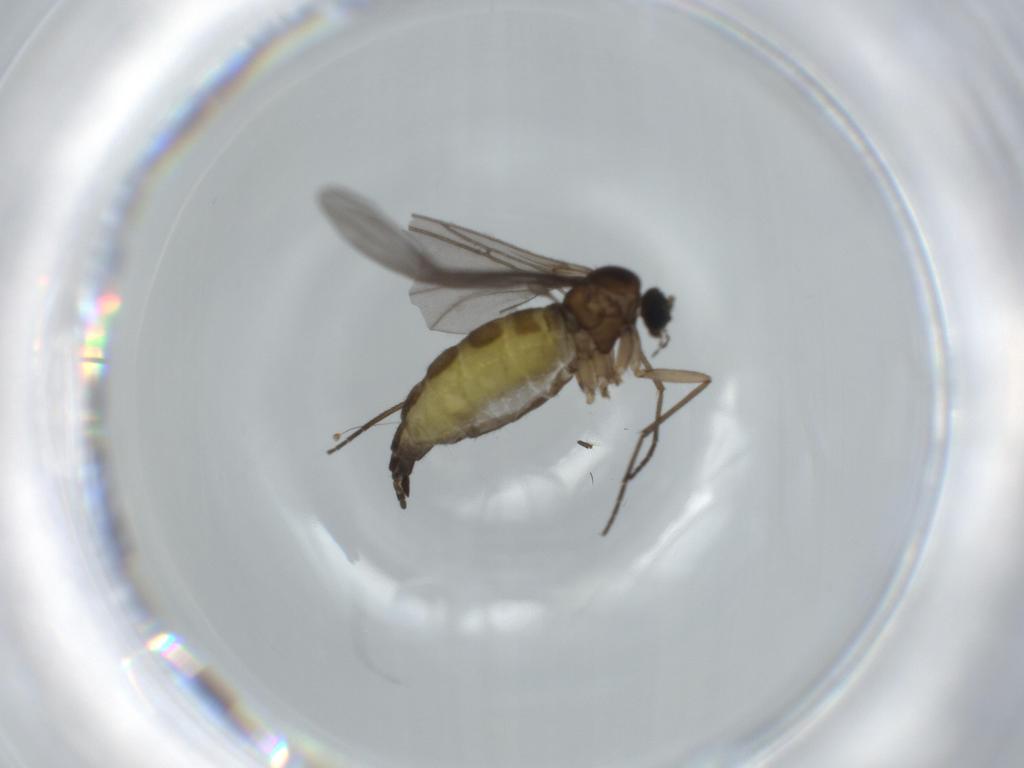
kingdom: Animalia
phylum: Arthropoda
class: Insecta
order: Diptera
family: Sciaridae
